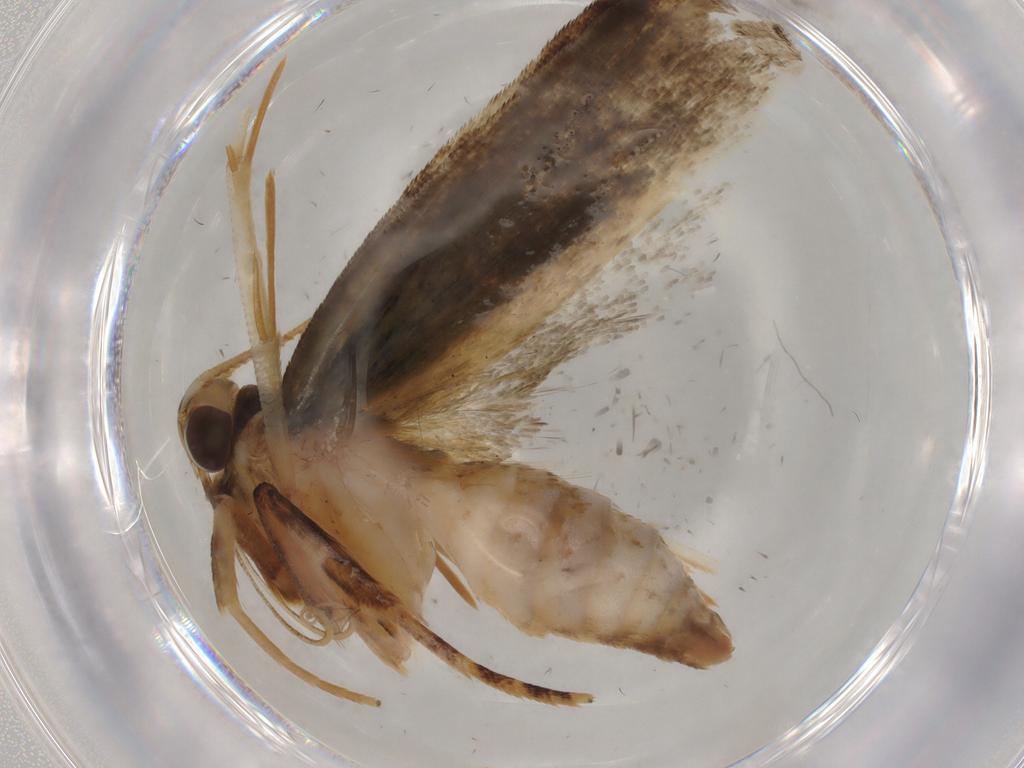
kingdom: Animalia
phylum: Arthropoda
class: Insecta
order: Lepidoptera
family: Gelechiidae
